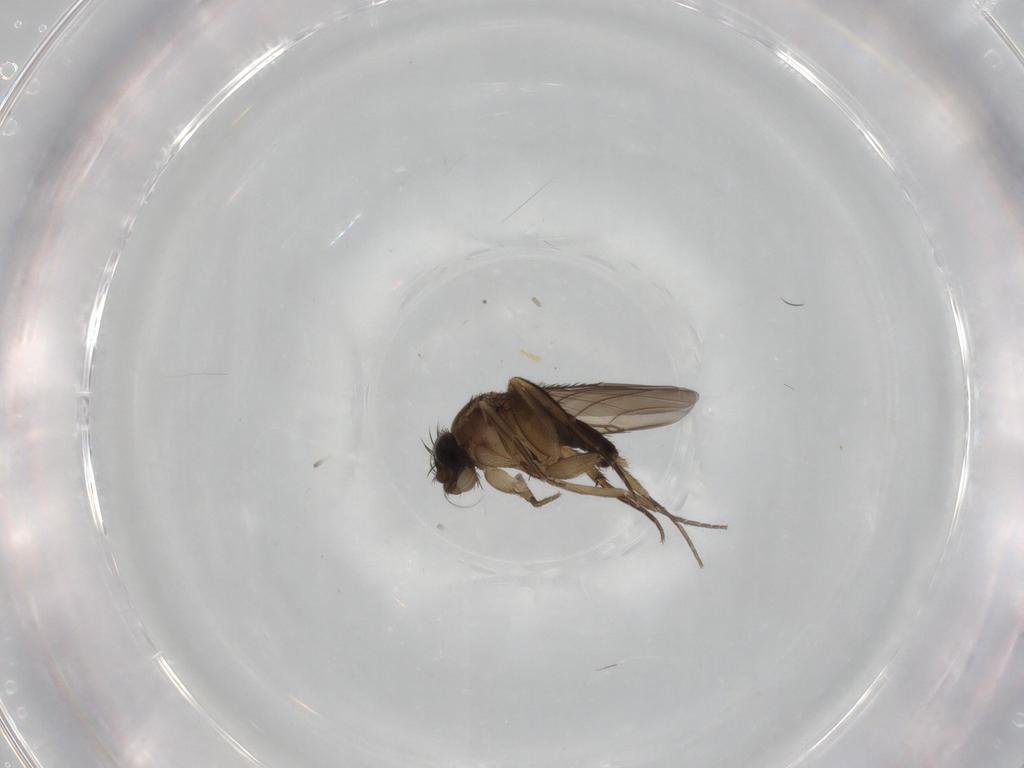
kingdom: Animalia
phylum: Arthropoda
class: Insecta
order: Diptera
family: Phoridae
